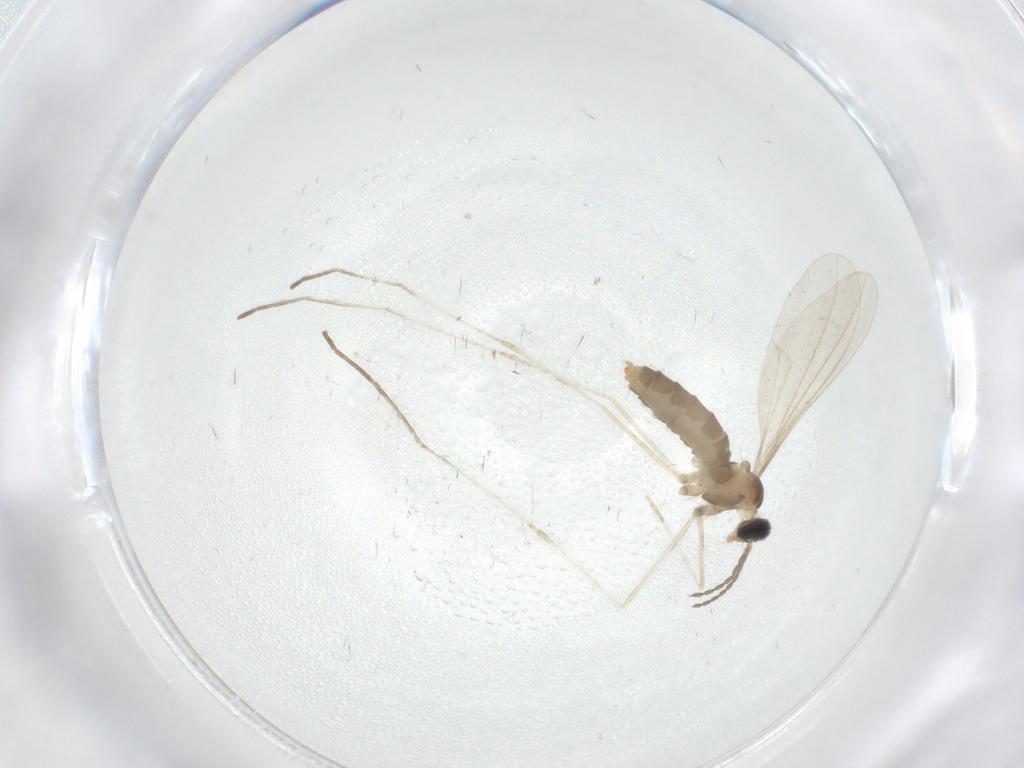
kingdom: Animalia
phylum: Arthropoda
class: Insecta
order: Diptera
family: Cecidomyiidae
